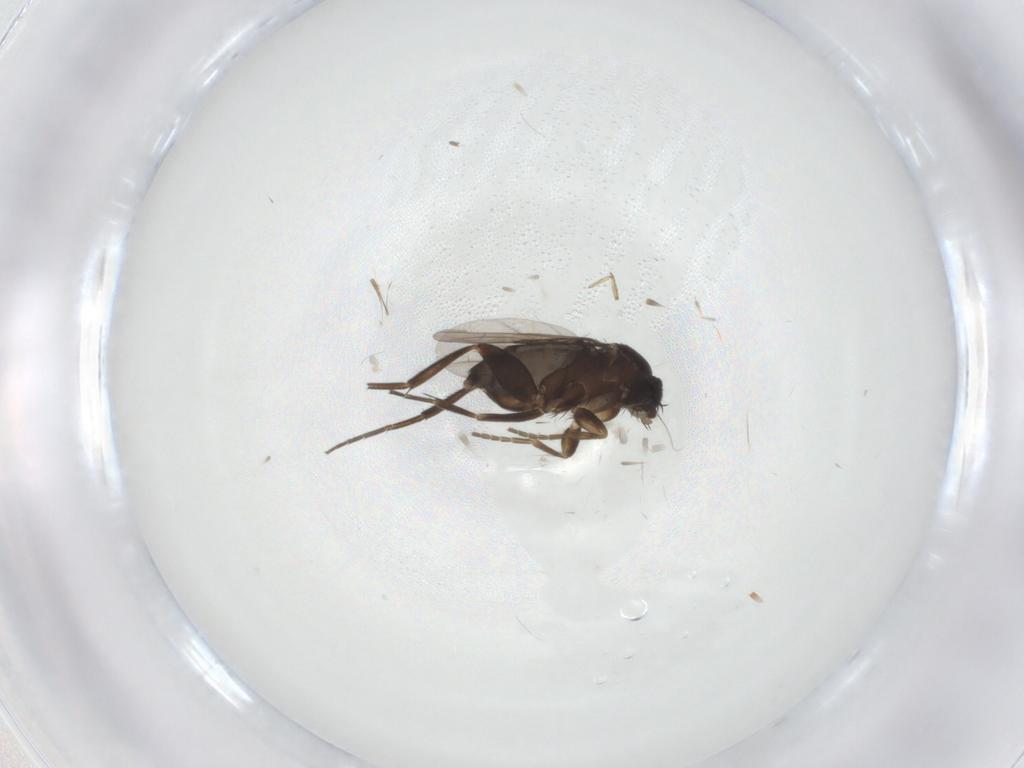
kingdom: Animalia
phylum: Arthropoda
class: Insecta
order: Diptera
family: Phoridae
